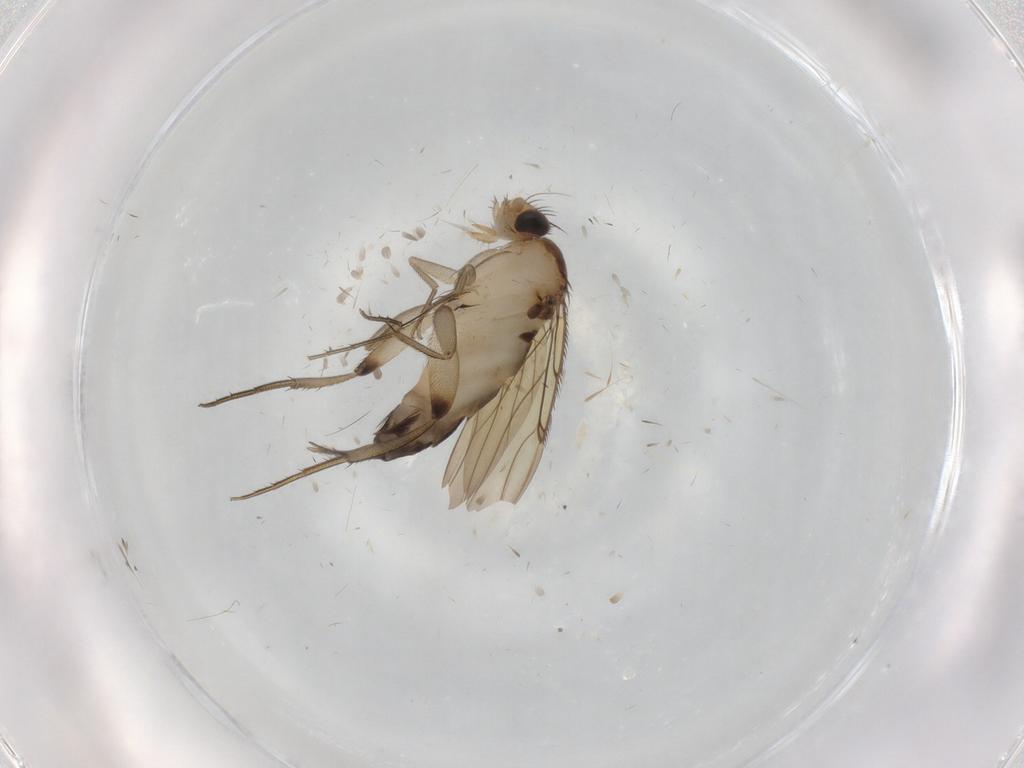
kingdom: Animalia
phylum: Arthropoda
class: Insecta
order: Diptera
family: Phoridae
